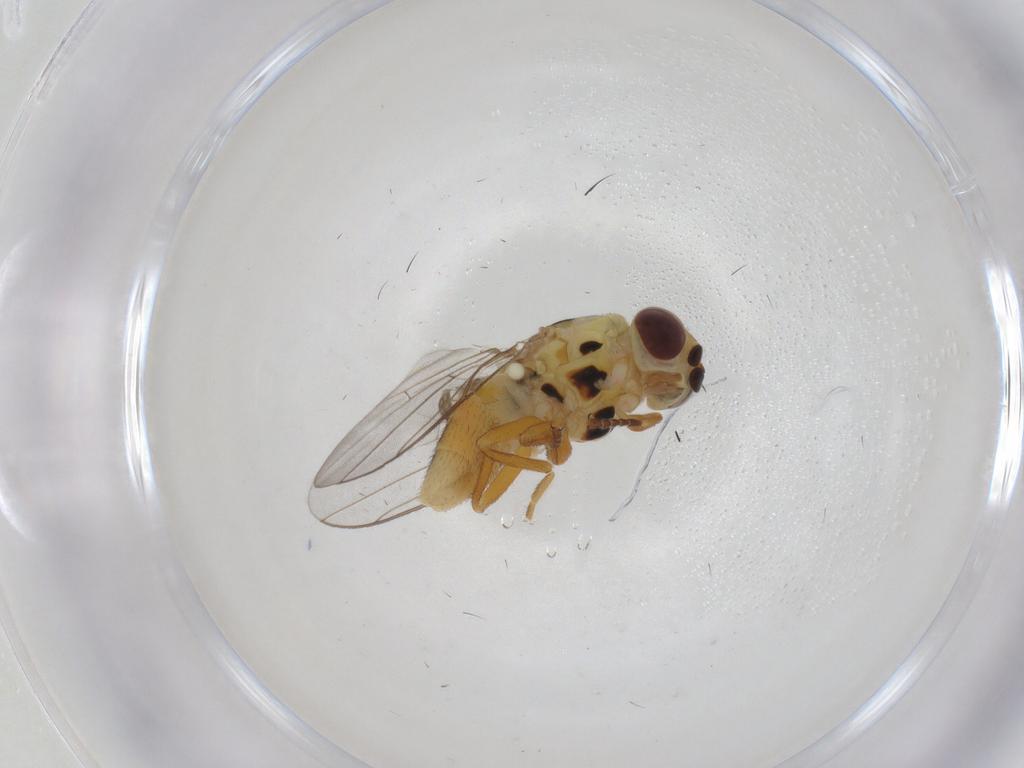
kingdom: Animalia
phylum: Arthropoda
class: Insecta
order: Diptera
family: Chloropidae
